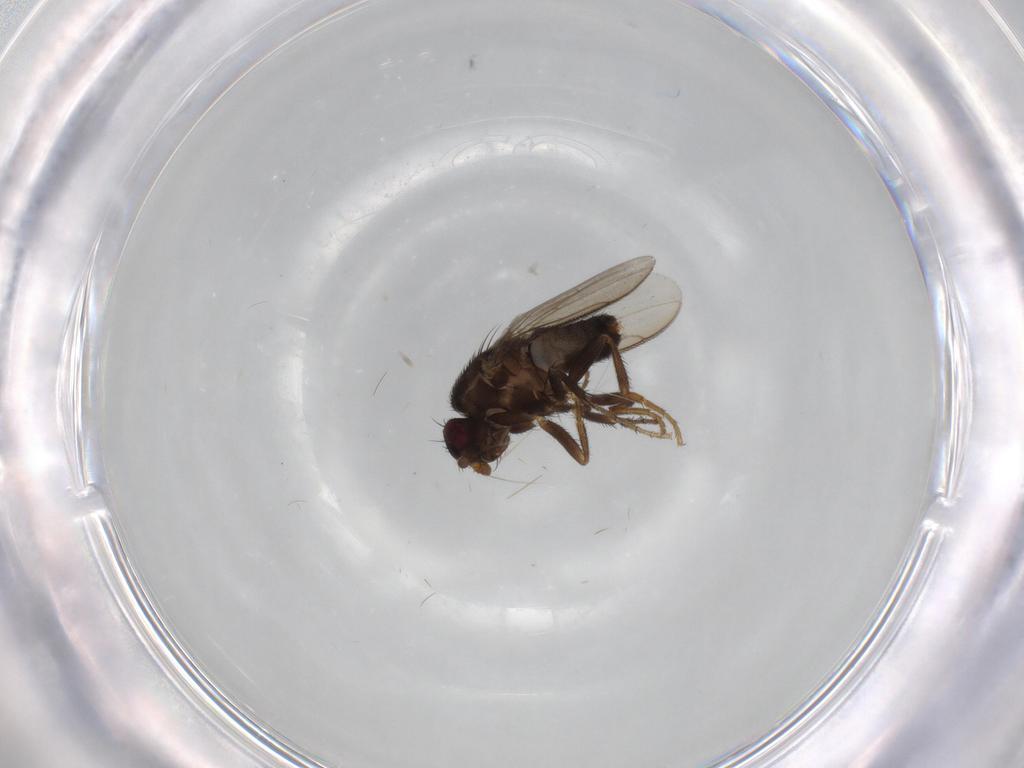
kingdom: Animalia
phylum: Arthropoda
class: Insecta
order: Diptera
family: Sphaeroceridae
